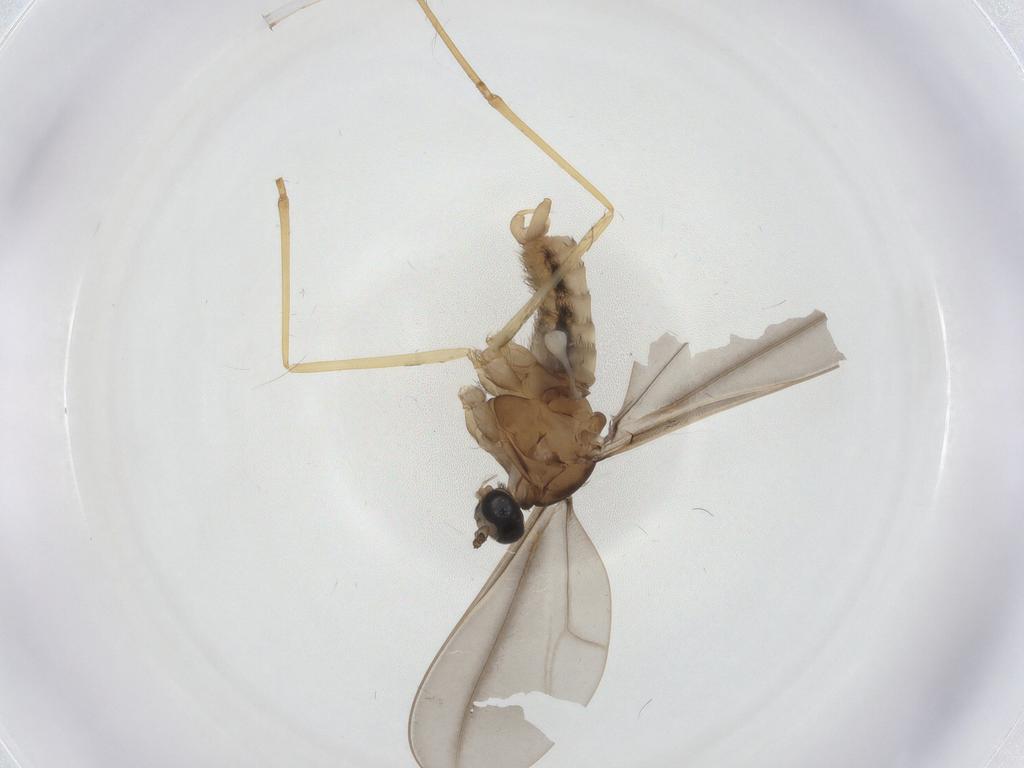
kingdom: Animalia
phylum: Arthropoda
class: Insecta
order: Diptera
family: Cecidomyiidae
